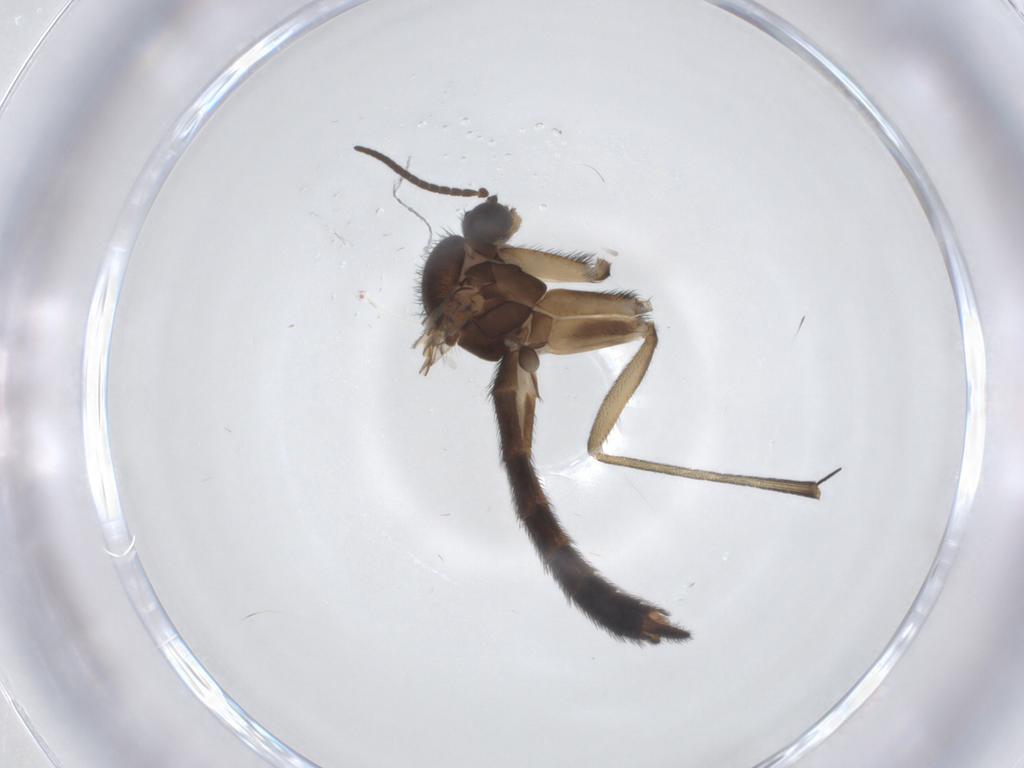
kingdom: Animalia
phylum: Arthropoda
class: Insecta
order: Diptera
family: Keroplatidae
